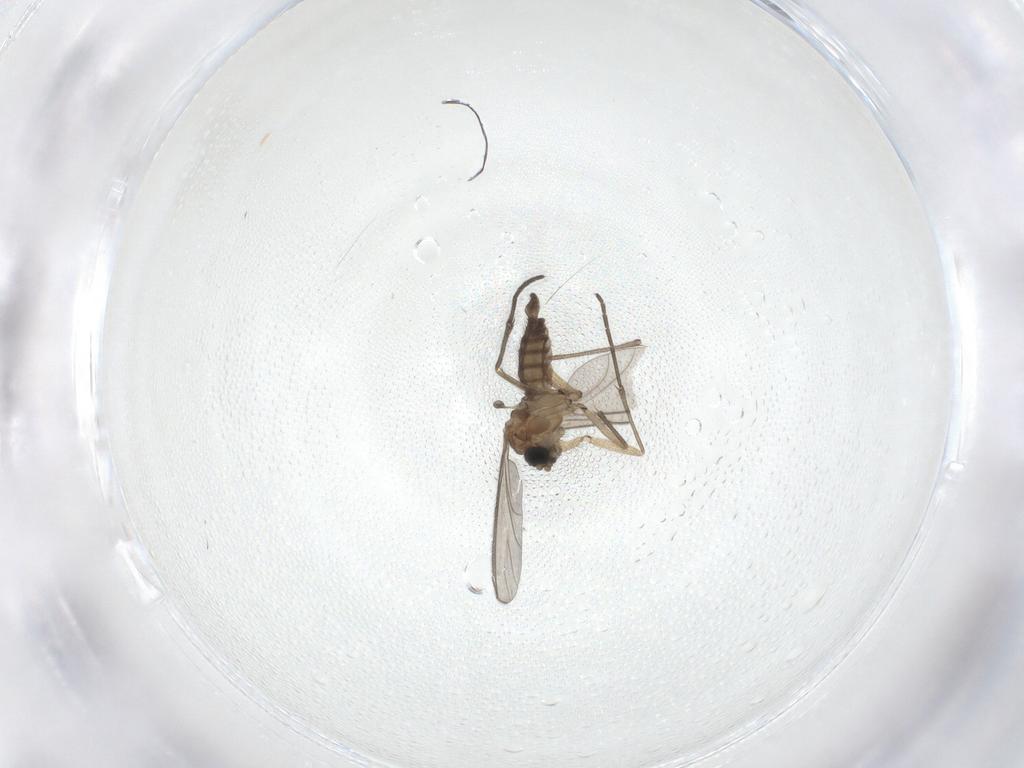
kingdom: Animalia
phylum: Arthropoda
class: Insecta
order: Diptera
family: Sciaridae
